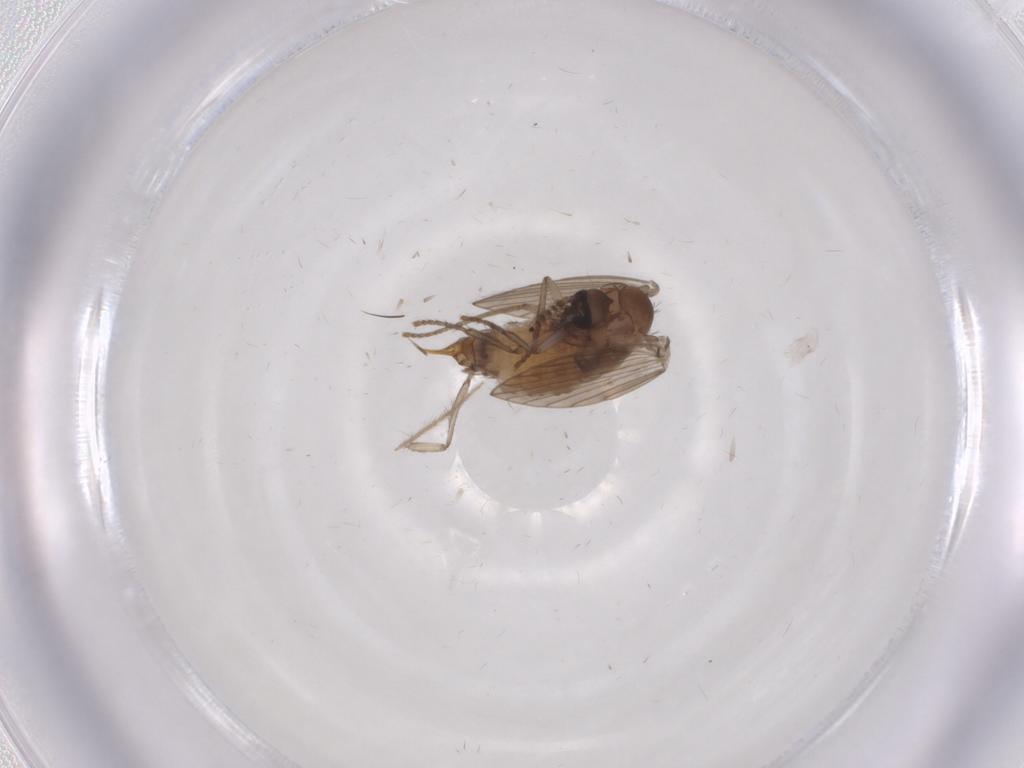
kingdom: Animalia
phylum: Arthropoda
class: Insecta
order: Diptera
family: Psychodidae
